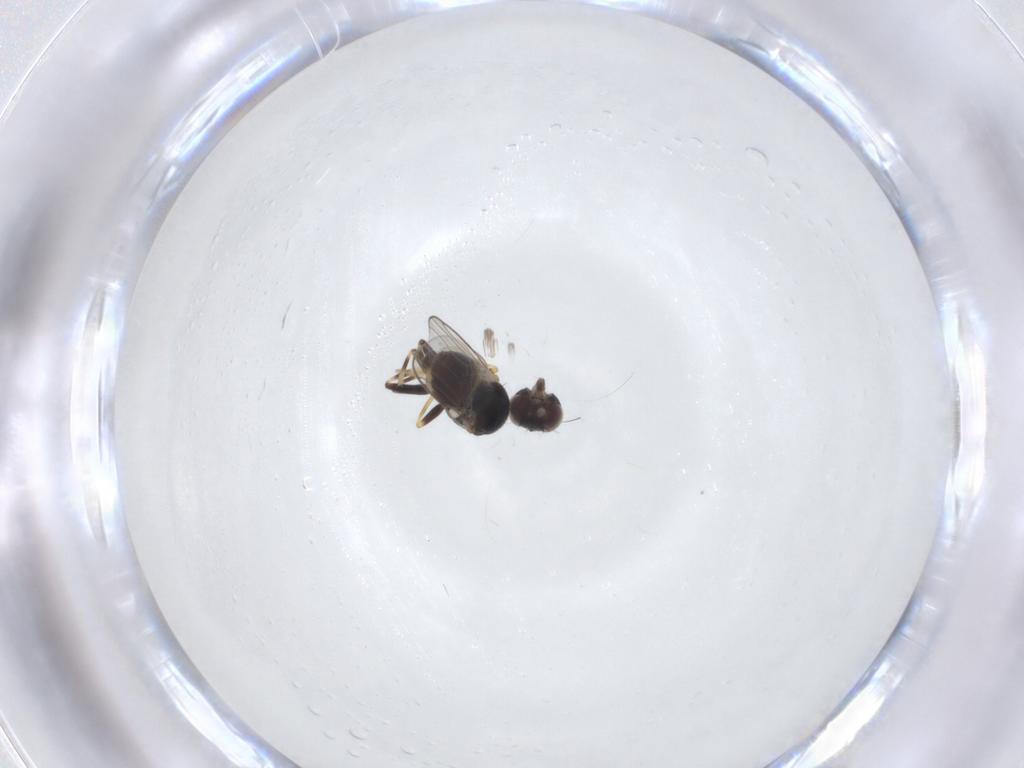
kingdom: Animalia
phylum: Arthropoda
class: Insecta
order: Diptera
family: Chloropidae
